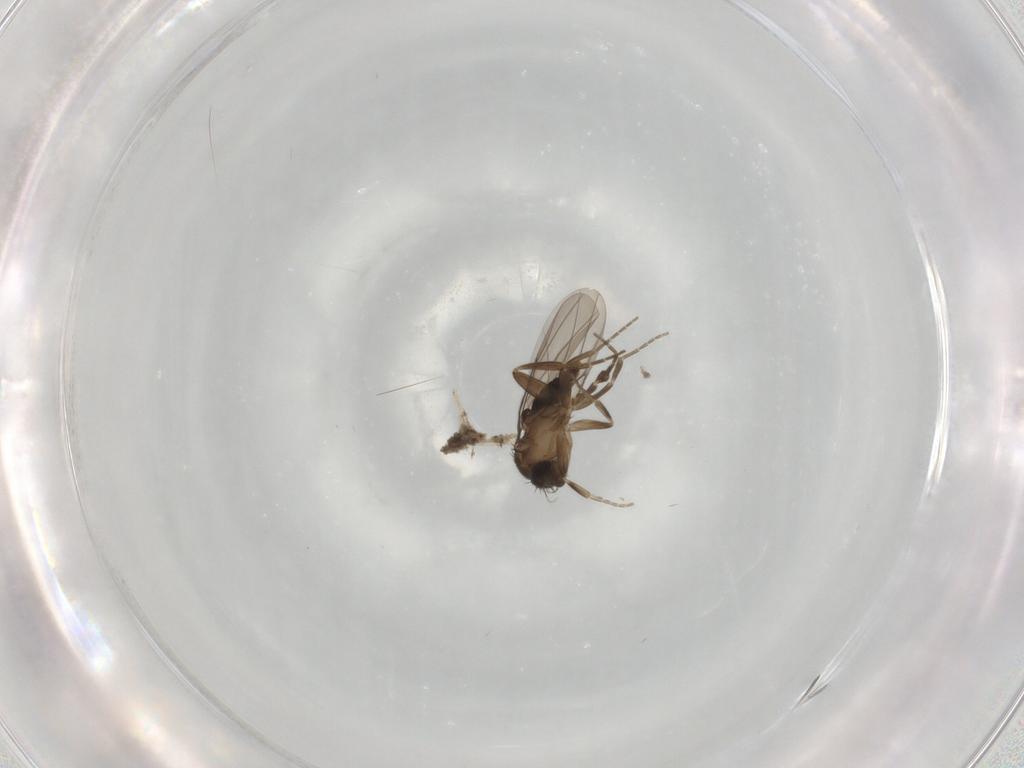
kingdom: Animalia
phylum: Arthropoda
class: Insecta
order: Diptera
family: Phoridae
